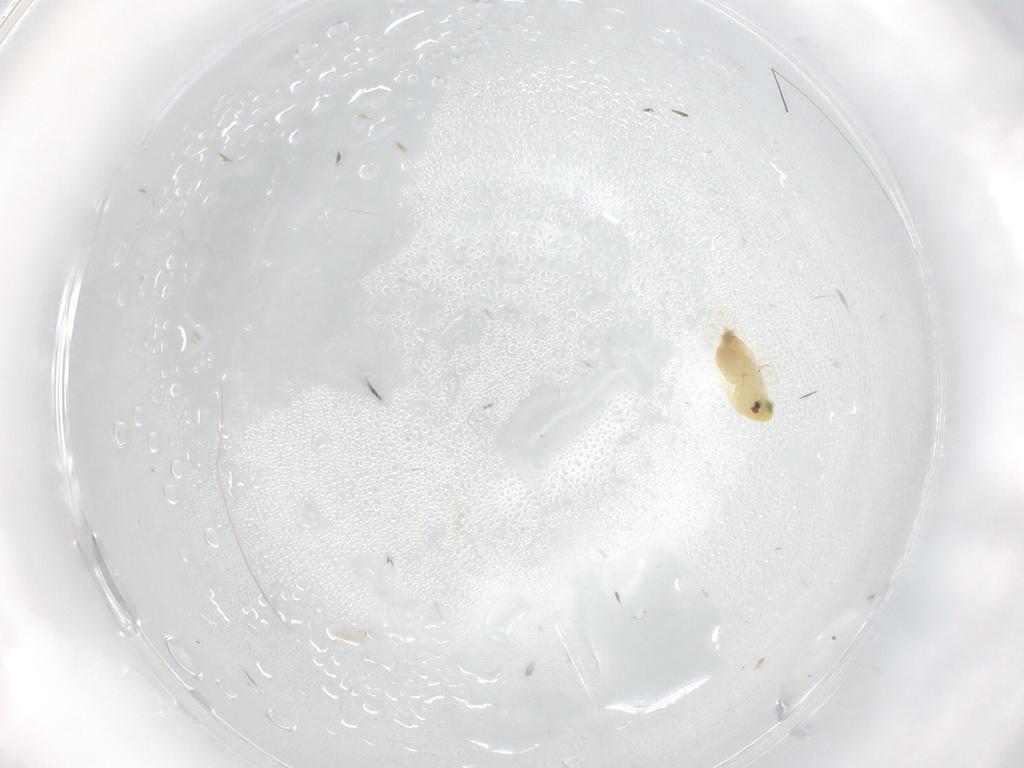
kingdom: Animalia
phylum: Arthropoda
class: Insecta
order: Hemiptera
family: Aleyrodidae
